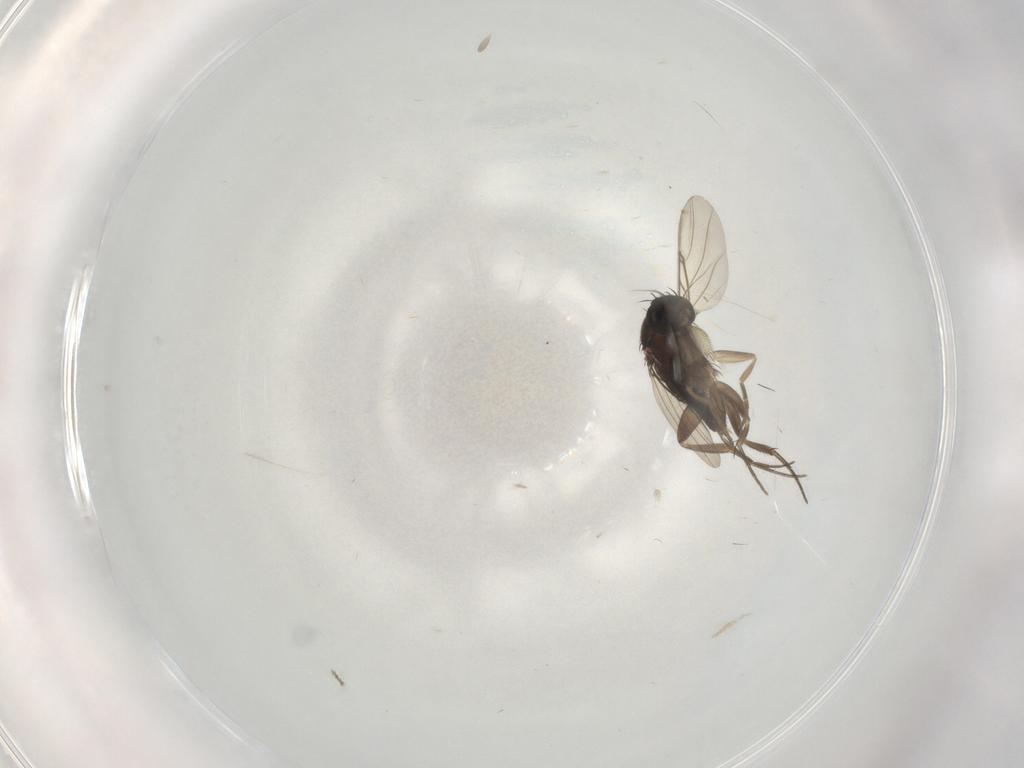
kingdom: Animalia
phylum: Arthropoda
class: Insecta
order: Diptera
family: Phoridae
